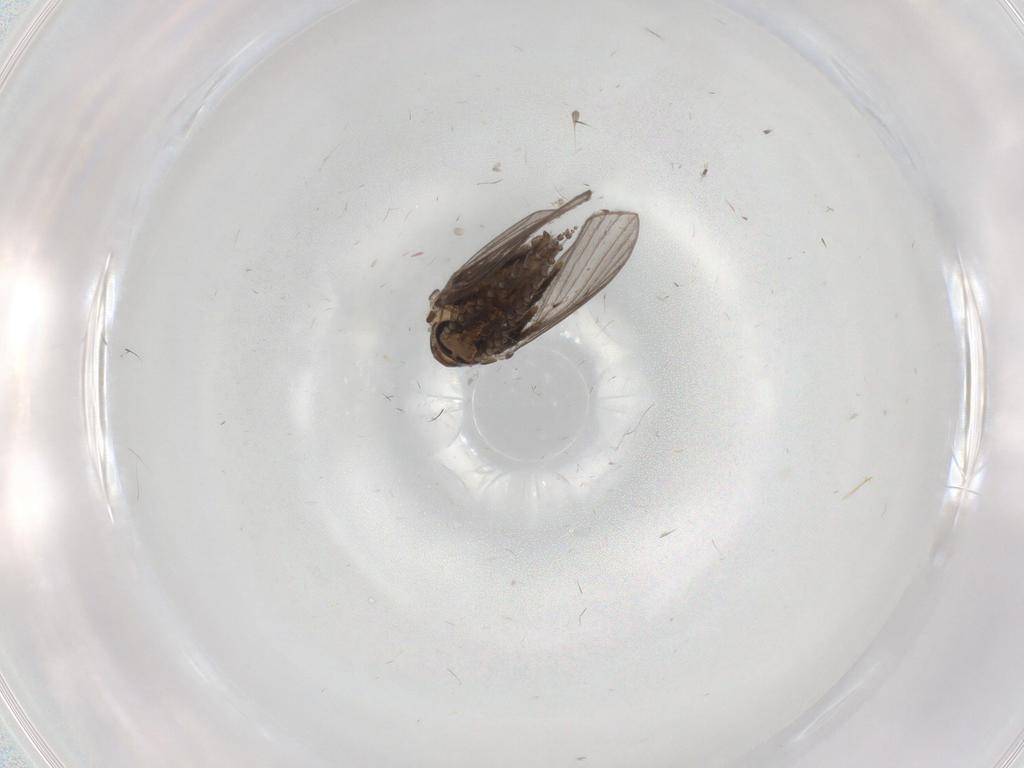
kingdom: Animalia
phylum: Arthropoda
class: Insecta
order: Diptera
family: Psychodidae
